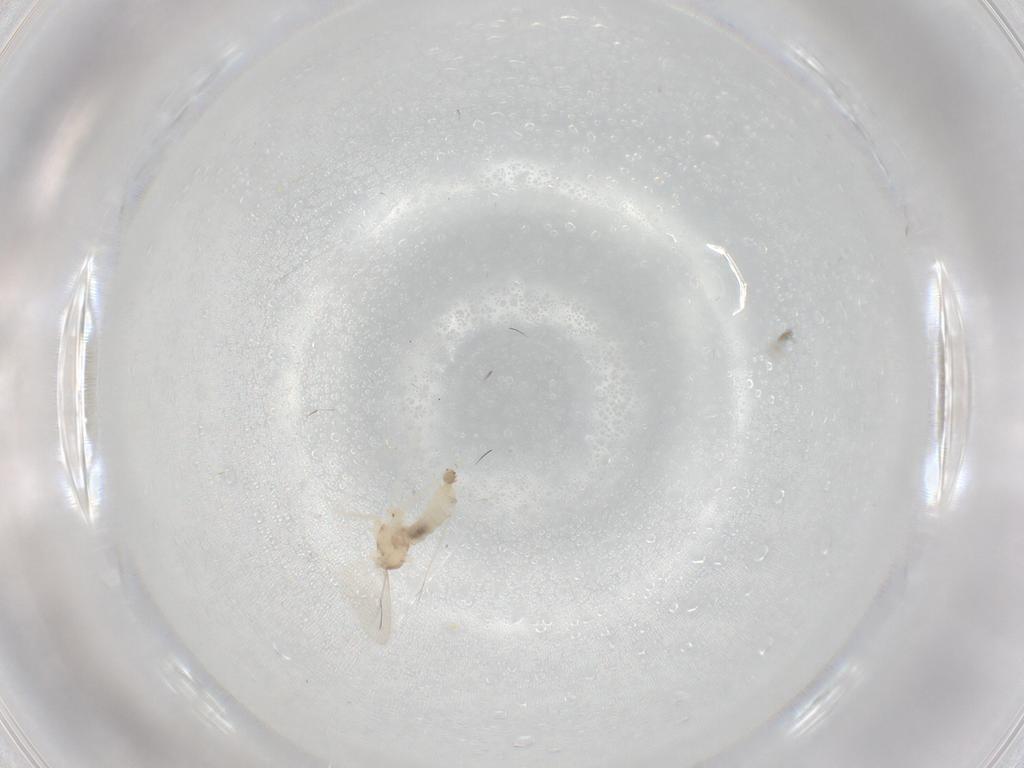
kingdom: Animalia
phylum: Arthropoda
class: Insecta
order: Diptera
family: Cecidomyiidae
